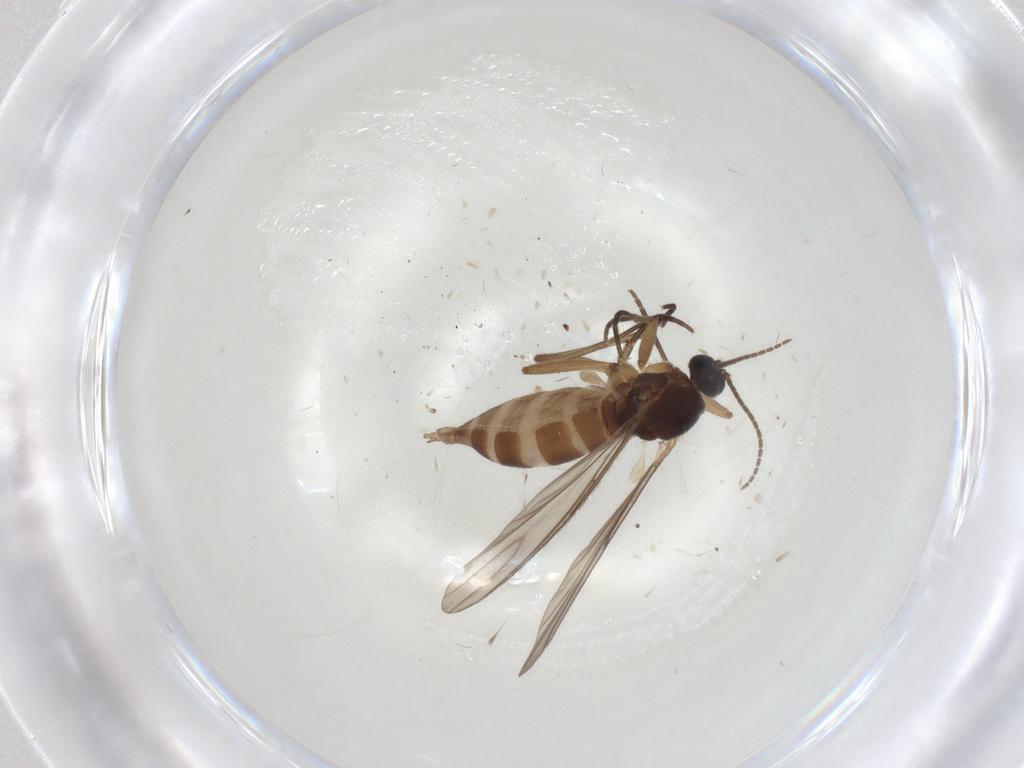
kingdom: Animalia
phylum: Arthropoda
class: Insecta
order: Diptera
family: Sciaridae
